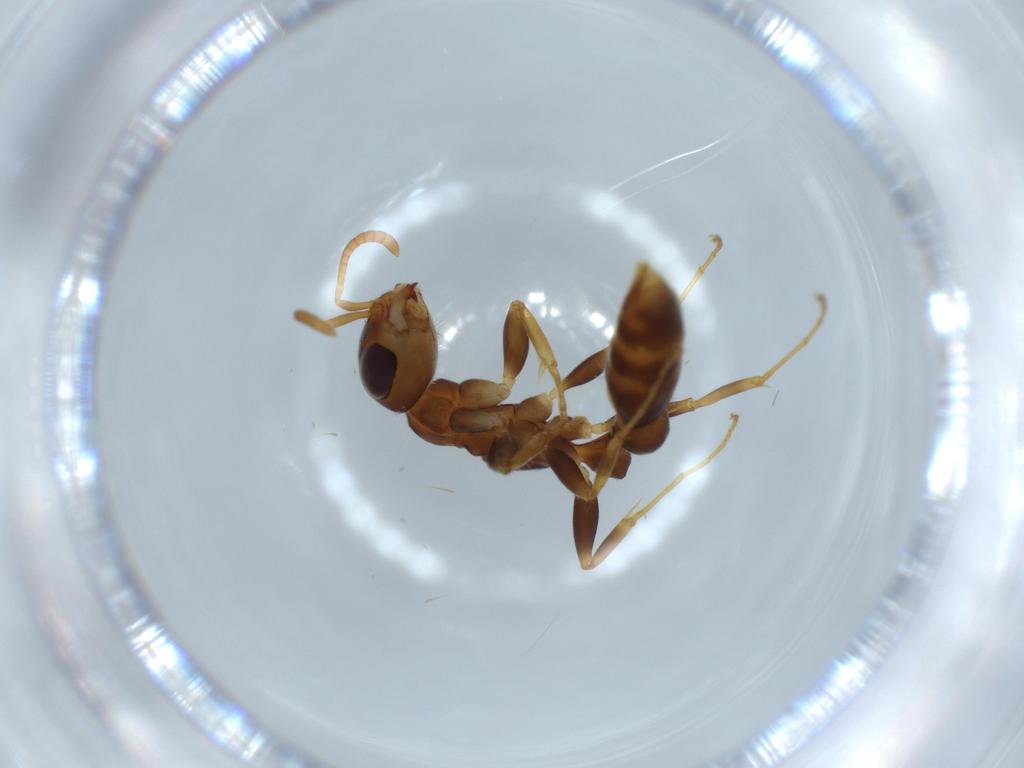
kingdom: Animalia
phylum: Arthropoda
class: Insecta
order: Hymenoptera
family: Formicidae
